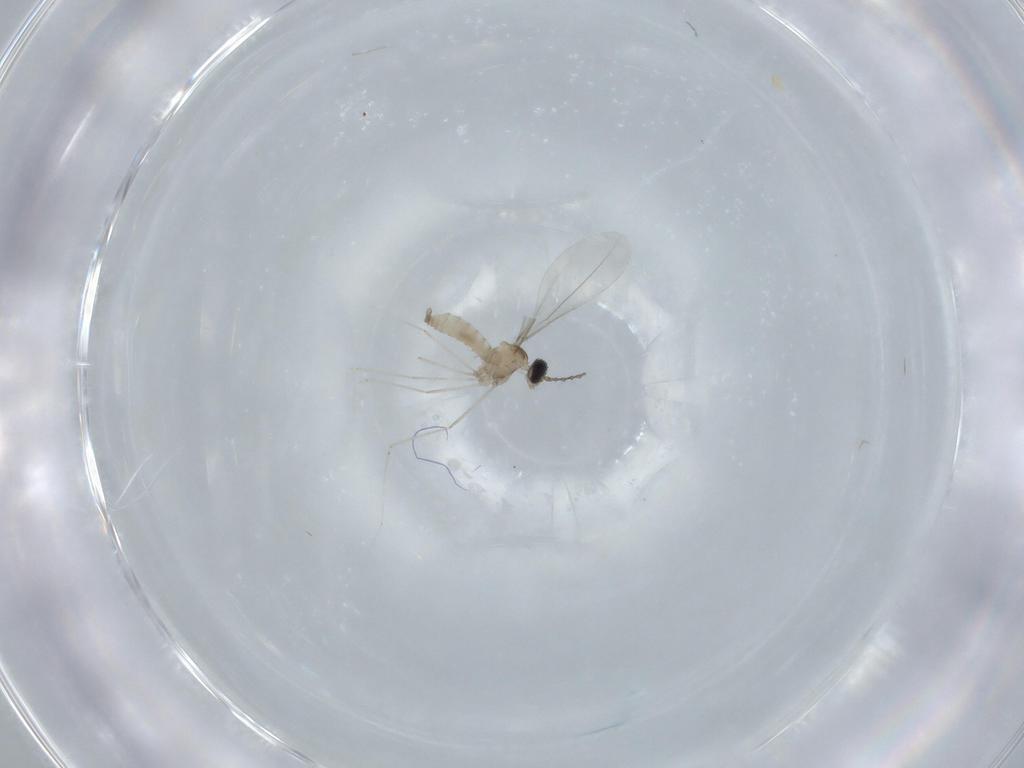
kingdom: Animalia
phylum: Arthropoda
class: Insecta
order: Diptera
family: Cecidomyiidae
